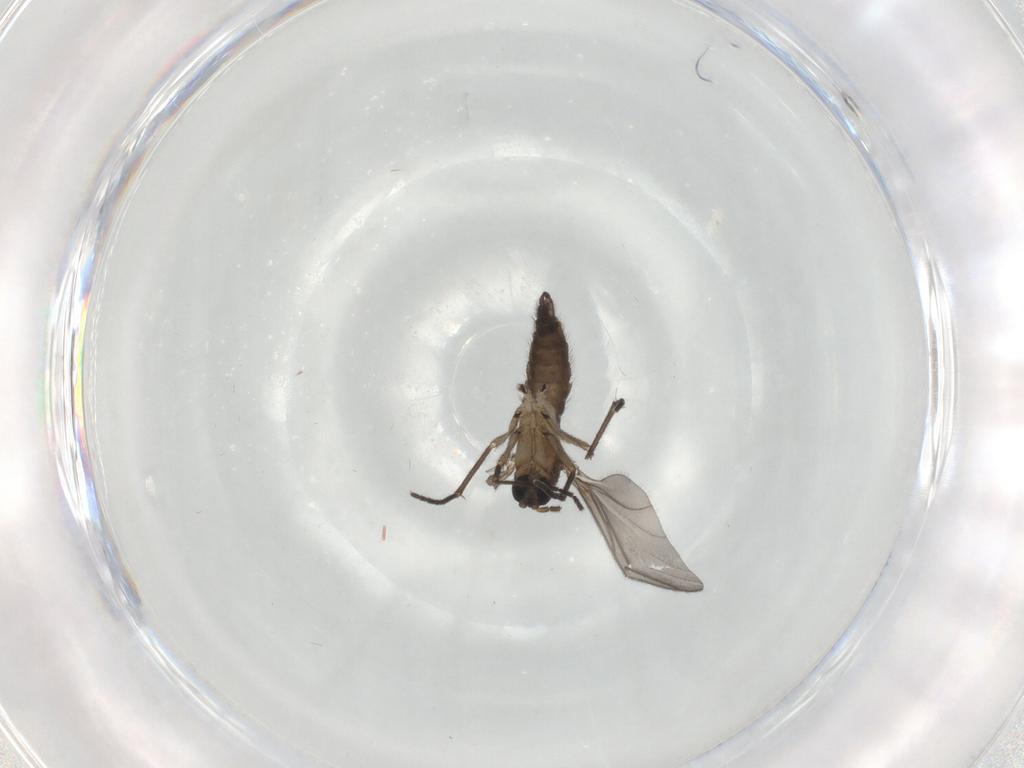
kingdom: Animalia
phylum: Arthropoda
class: Insecta
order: Diptera
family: Sciaridae
